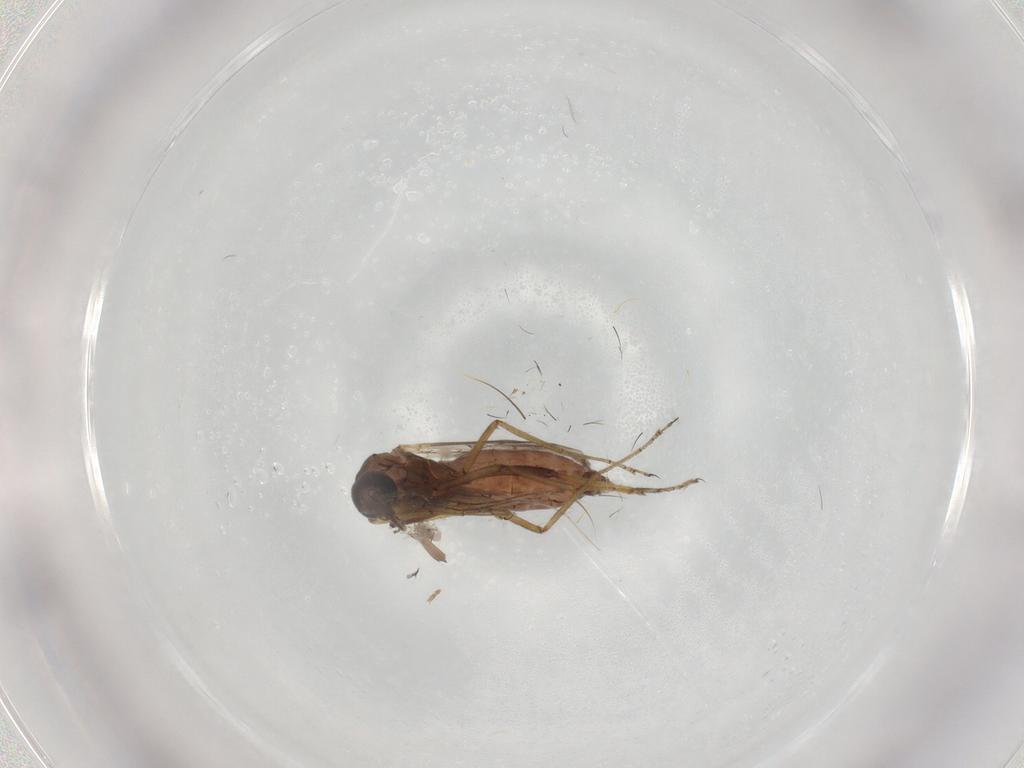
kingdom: Animalia
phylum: Arthropoda
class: Insecta
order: Diptera
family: Ceratopogonidae
